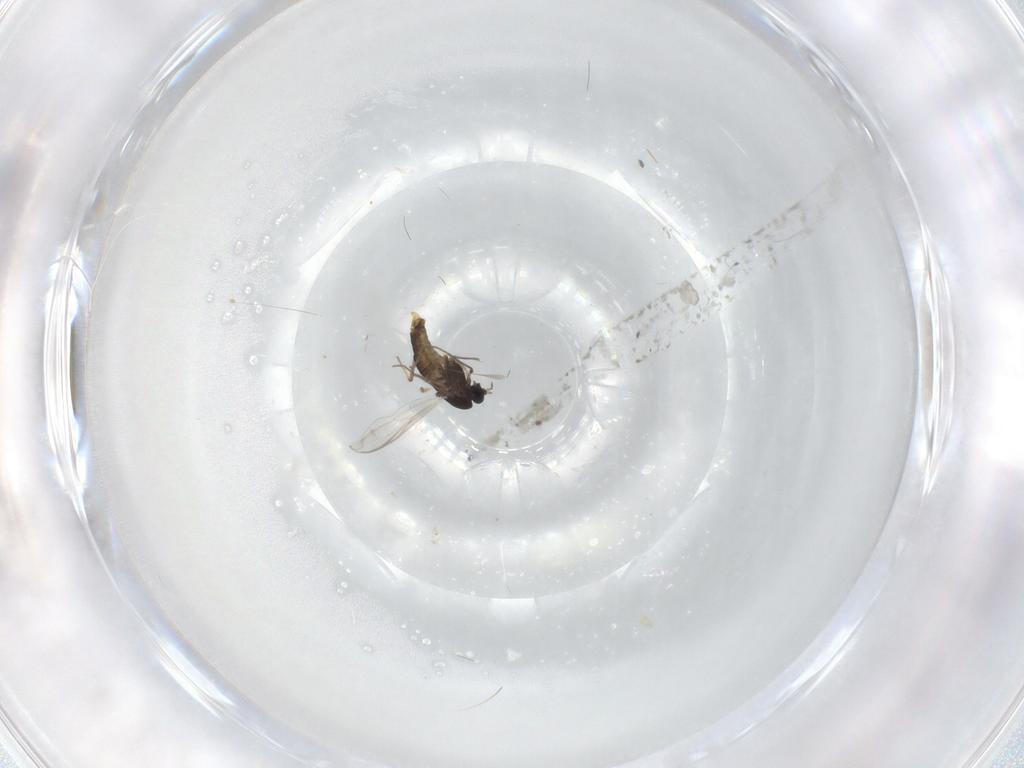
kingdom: Animalia
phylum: Arthropoda
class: Insecta
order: Diptera
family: Chironomidae
